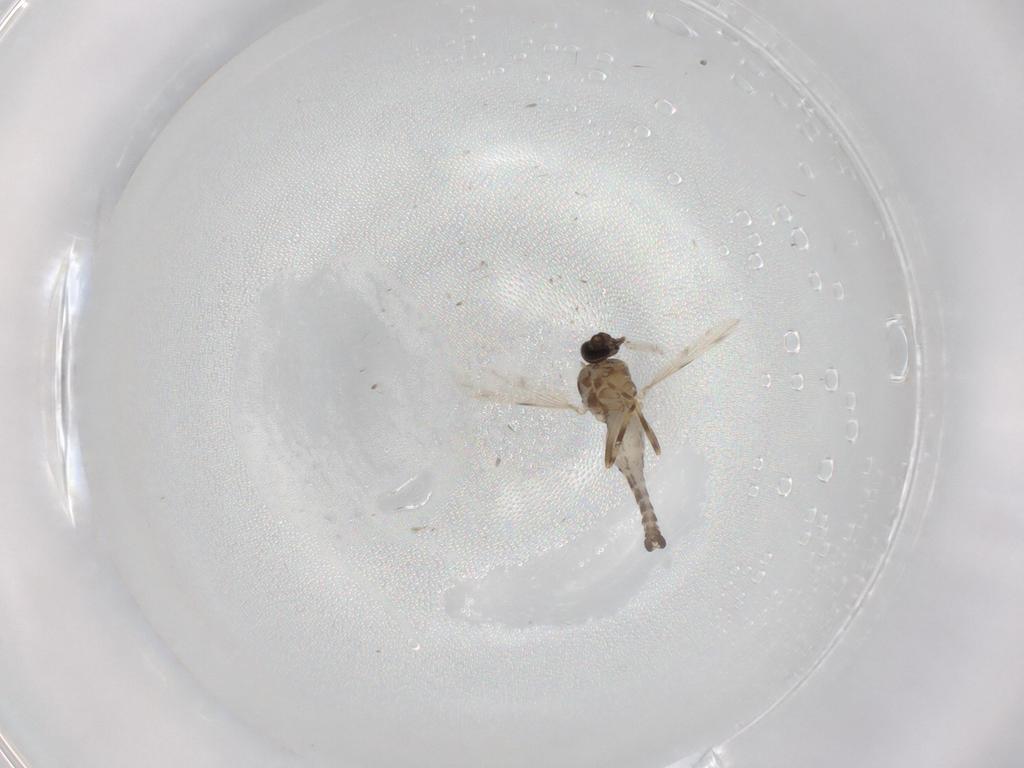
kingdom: Animalia
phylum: Arthropoda
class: Insecta
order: Diptera
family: Ceratopogonidae
